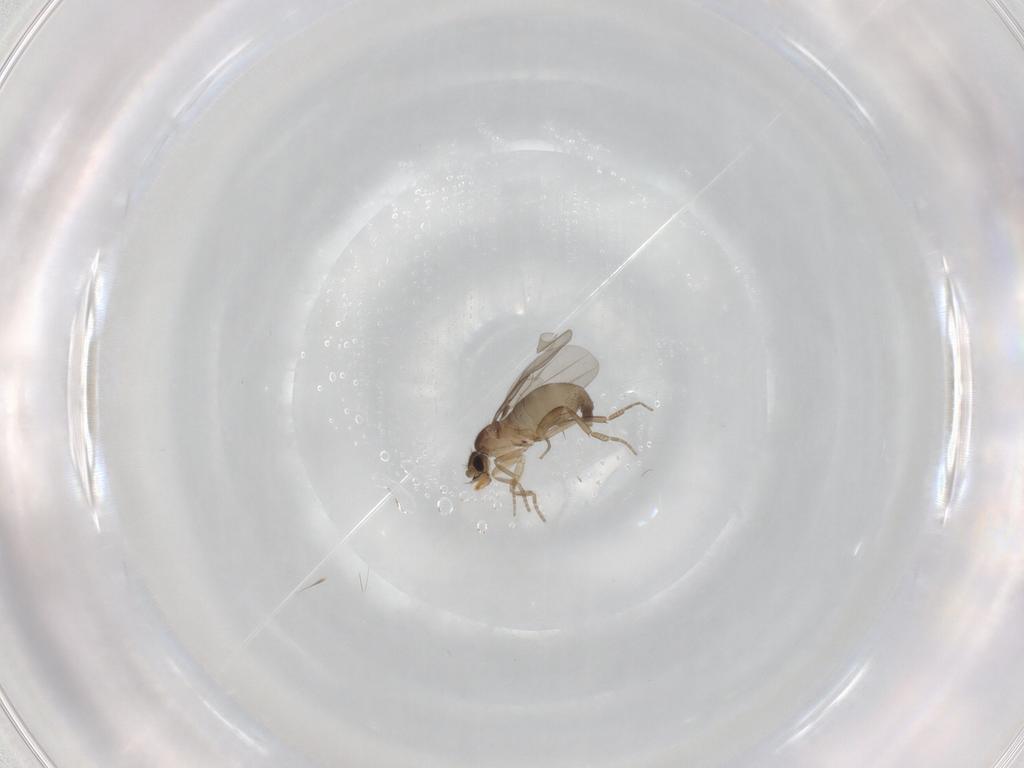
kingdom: Animalia
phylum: Arthropoda
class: Insecta
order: Diptera
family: Phoridae
